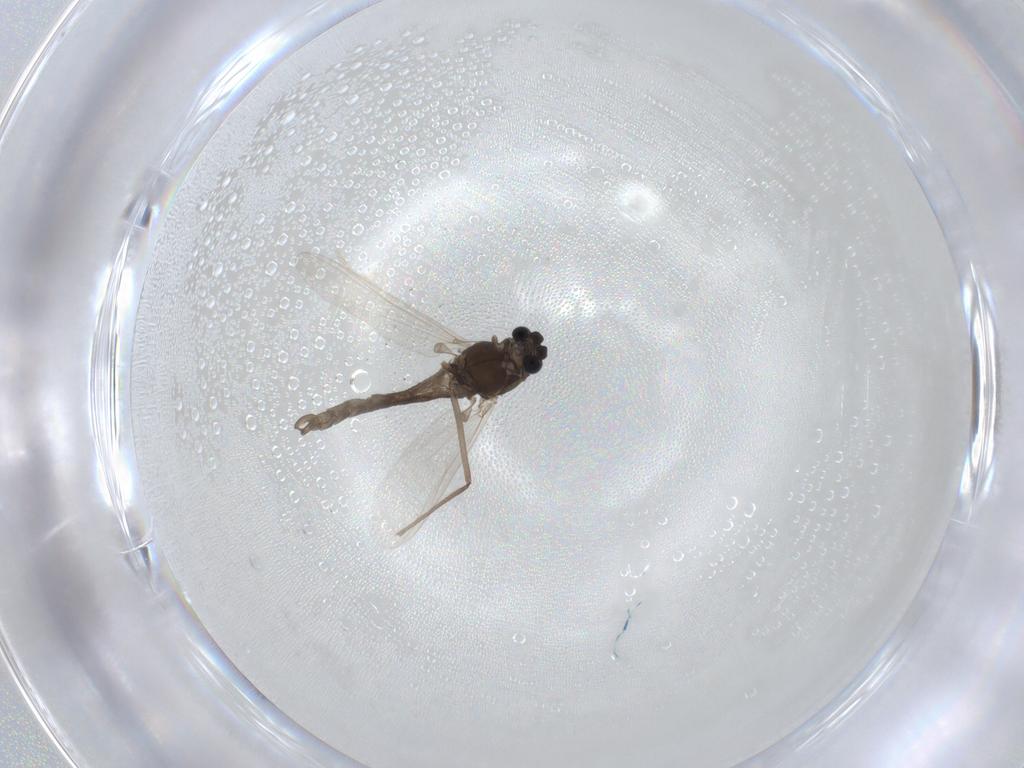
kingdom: Animalia
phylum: Arthropoda
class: Insecta
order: Diptera
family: Chironomidae
